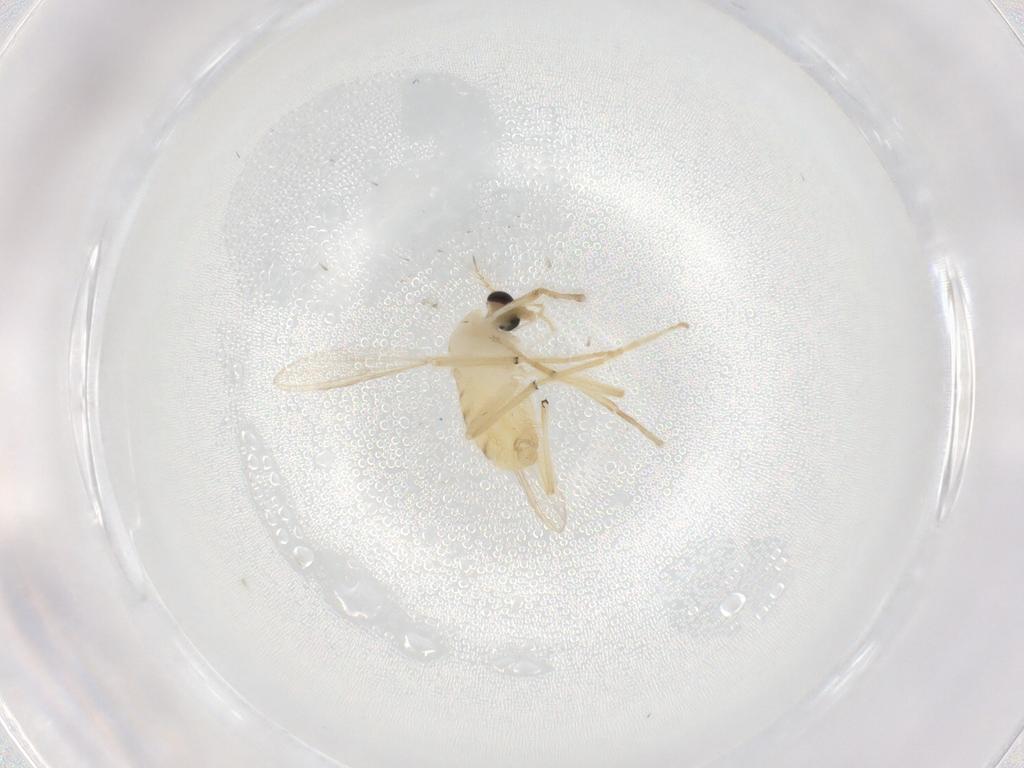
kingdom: Animalia
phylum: Arthropoda
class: Insecta
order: Diptera
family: Chironomidae
